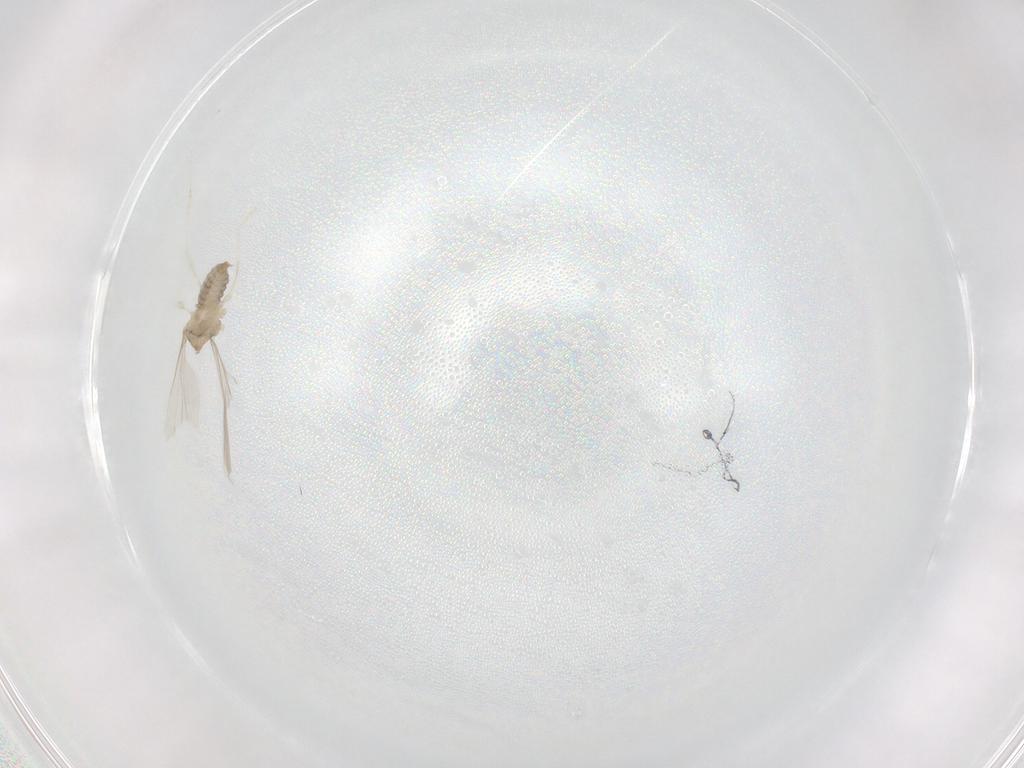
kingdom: Animalia
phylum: Arthropoda
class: Insecta
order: Diptera
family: Cecidomyiidae
